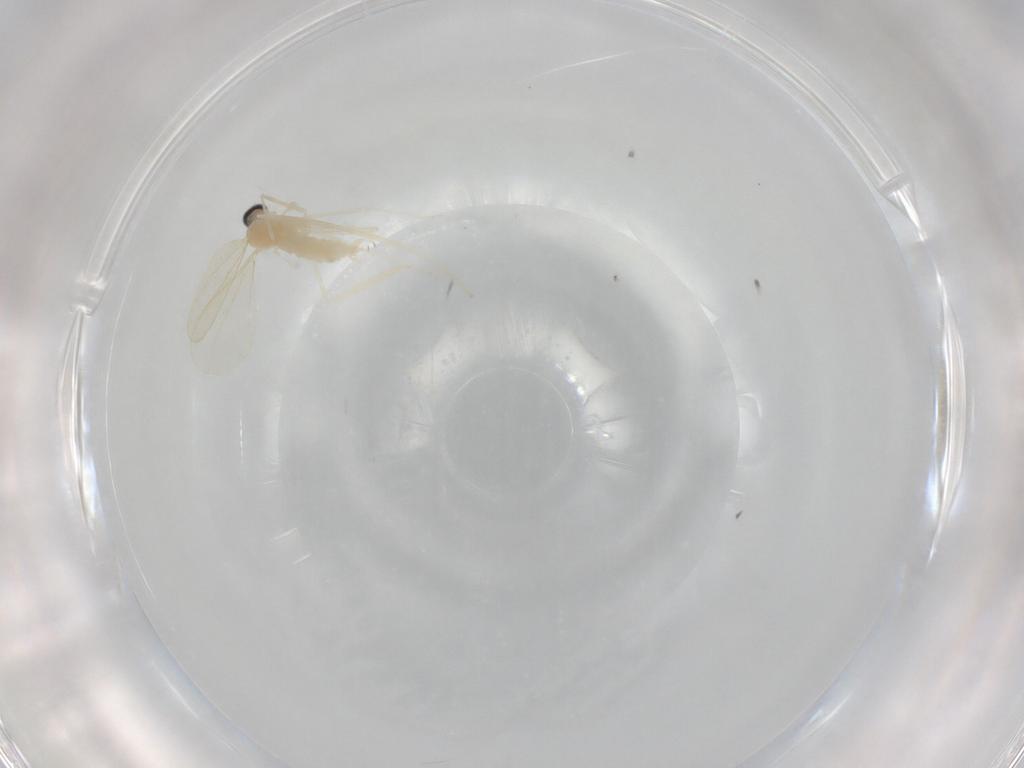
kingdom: Animalia
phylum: Arthropoda
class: Insecta
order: Diptera
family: Cecidomyiidae
